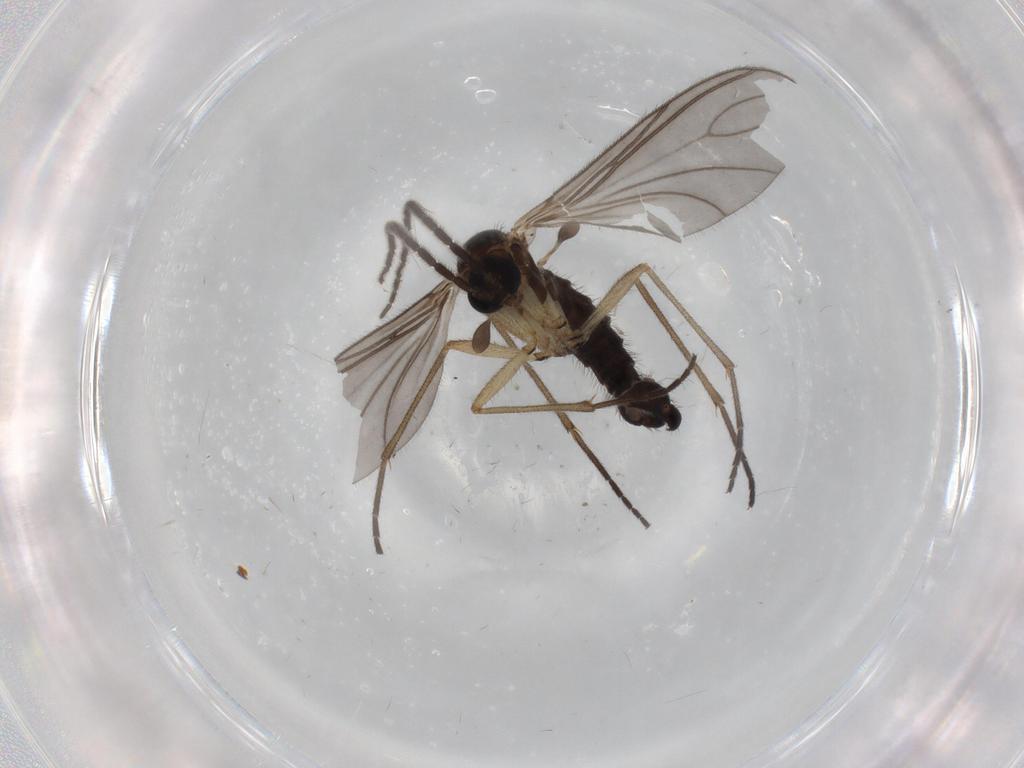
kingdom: Animalia
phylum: Arthropoda
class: Insecta
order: Diptera
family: Sciaridae
